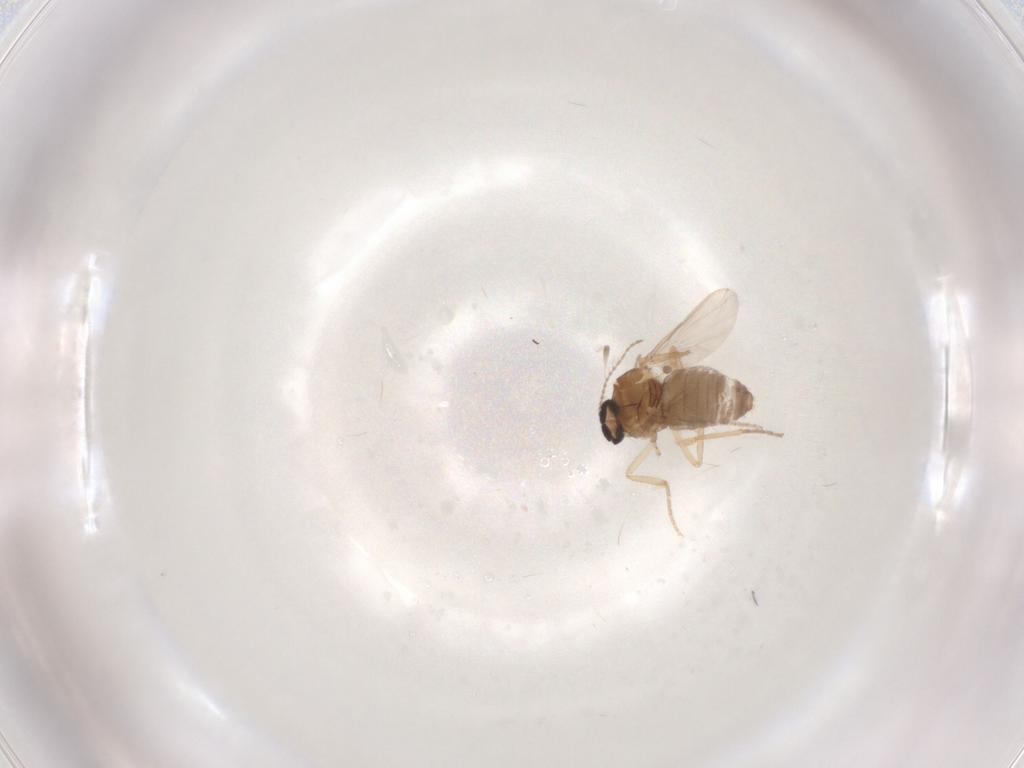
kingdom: Animalia
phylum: Arthropoda
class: Insecta
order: Diptera
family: Ceratopogonidae
